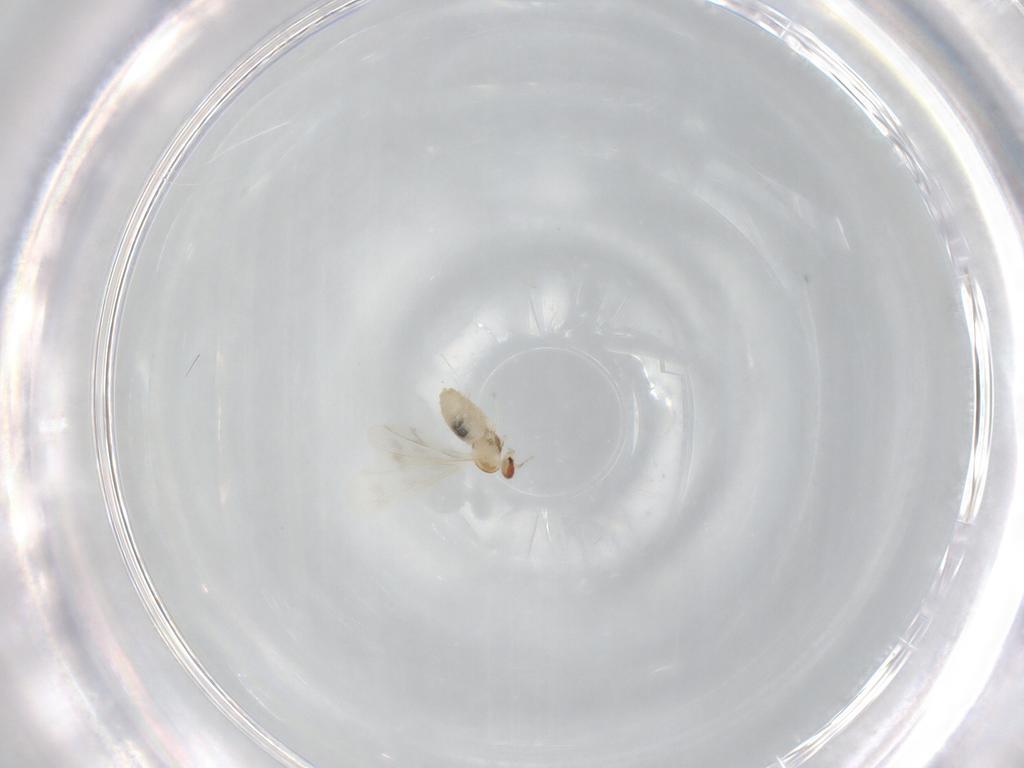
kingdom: Animalia
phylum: Arthropoda
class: Insecta
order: Diptera
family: Cecidomyiidae
